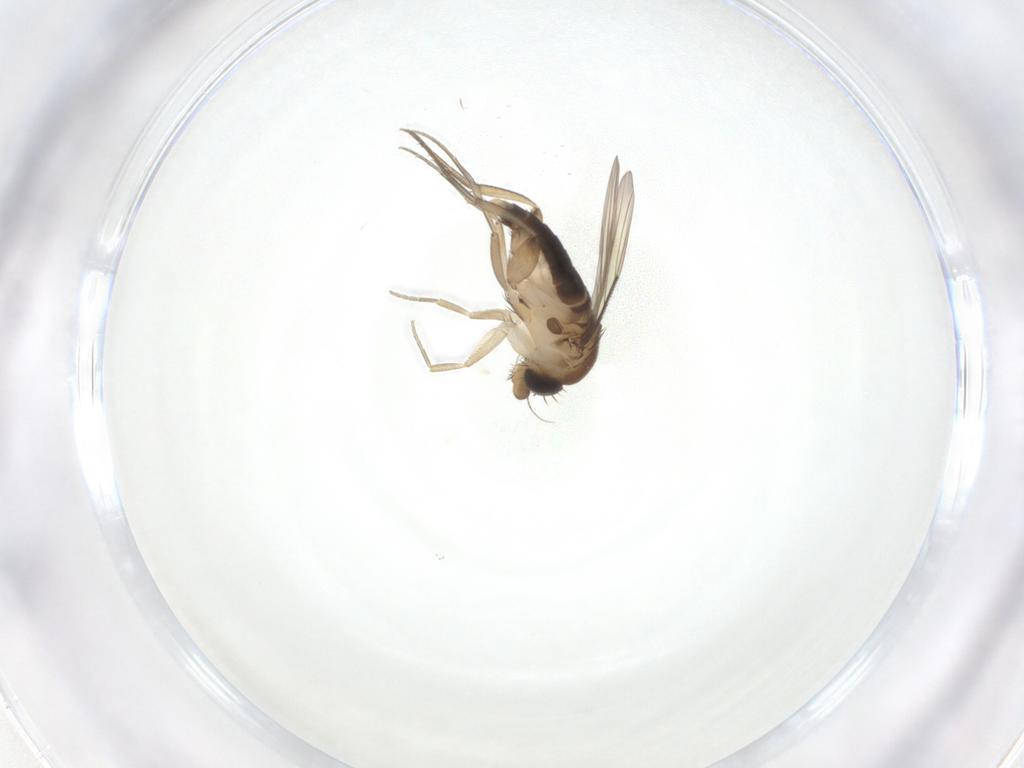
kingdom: Animalia
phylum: Arthropoda
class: Insecta
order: Diptera
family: Phoridae
